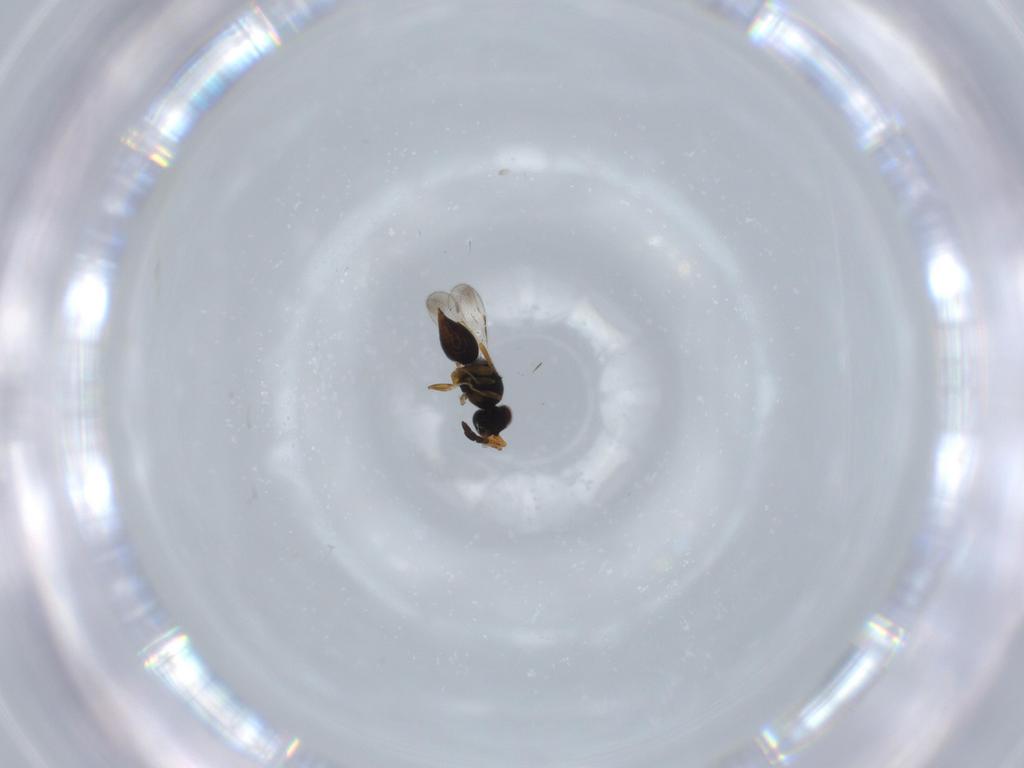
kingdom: Animalia
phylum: Arthropoda
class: Insecta
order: Hymenoptera
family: Ceraphronidae
